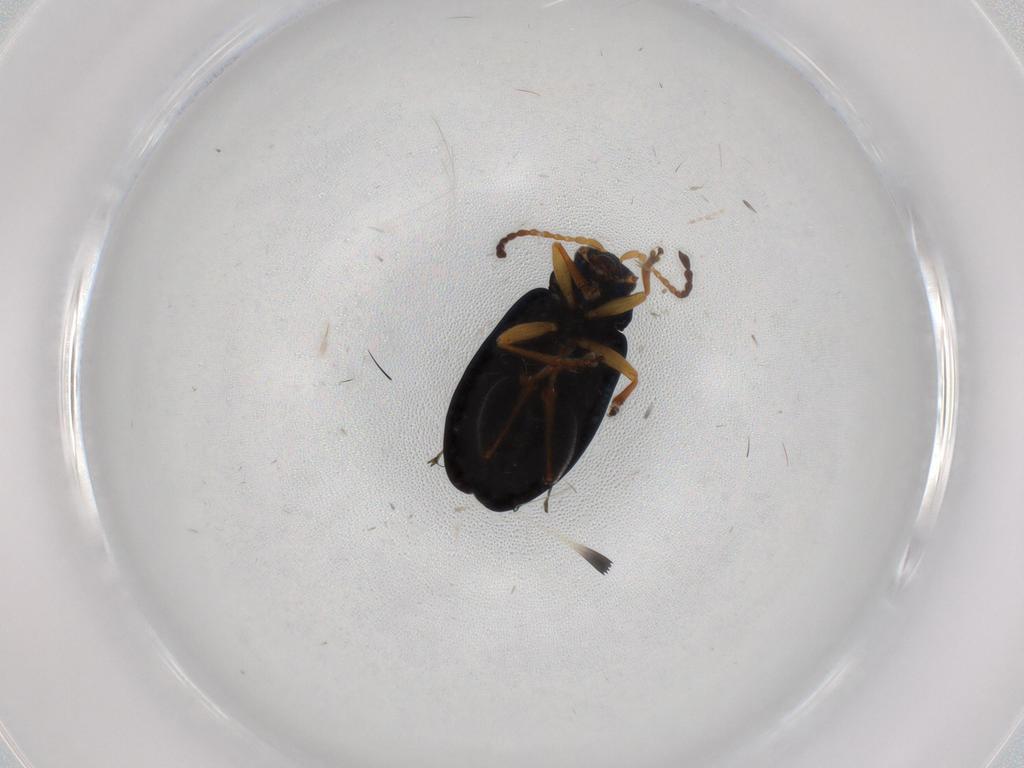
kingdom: Animalia
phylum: Arthropoda
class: Insecta
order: Coleoptera
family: Chrysomelidae
